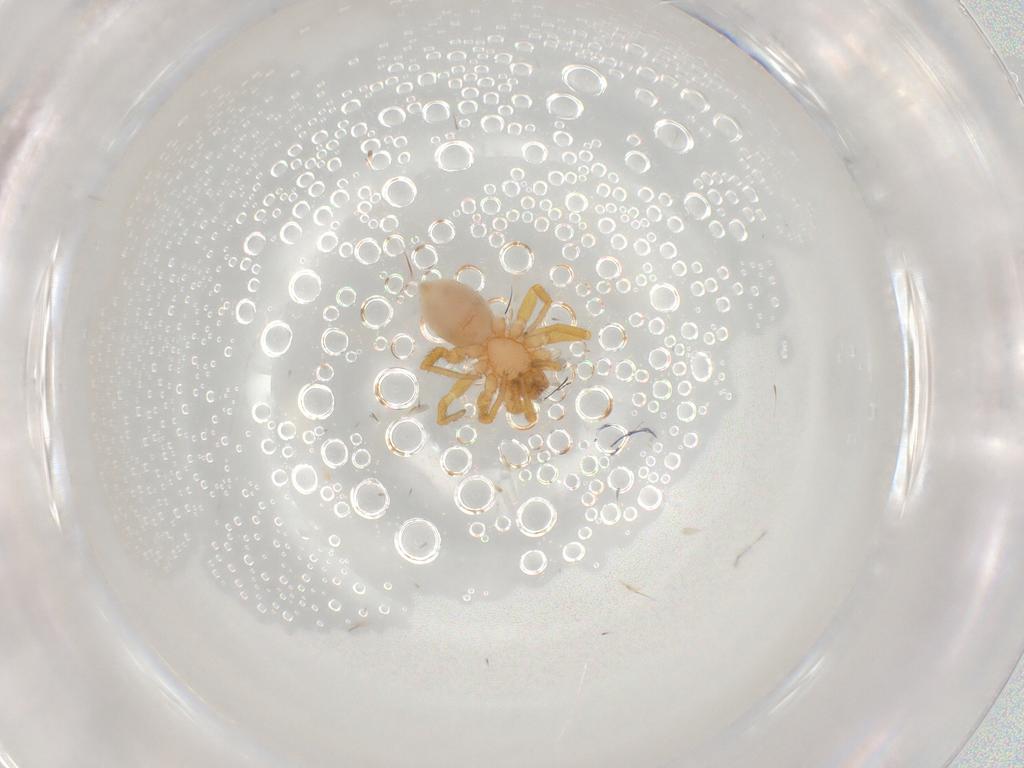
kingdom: Animalia
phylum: Arthropoda
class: Arachnida
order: Araneae
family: Hahniidae
